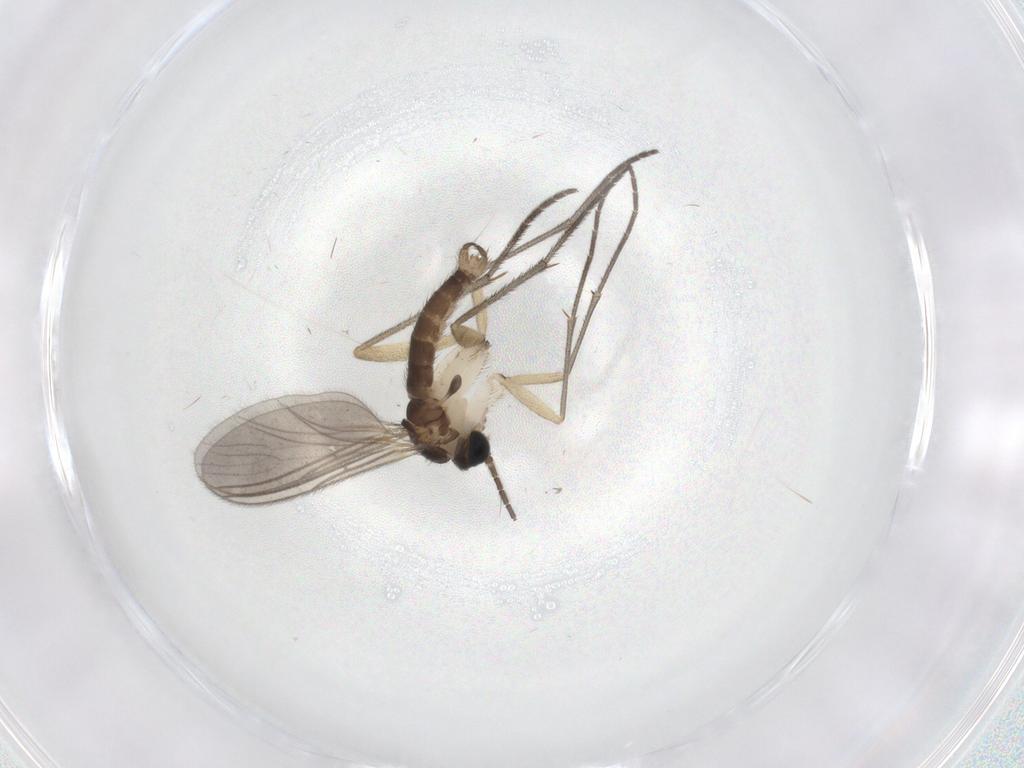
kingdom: Animalia
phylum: Arthropoda
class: Insecta
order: Diptera
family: Sciaridae
